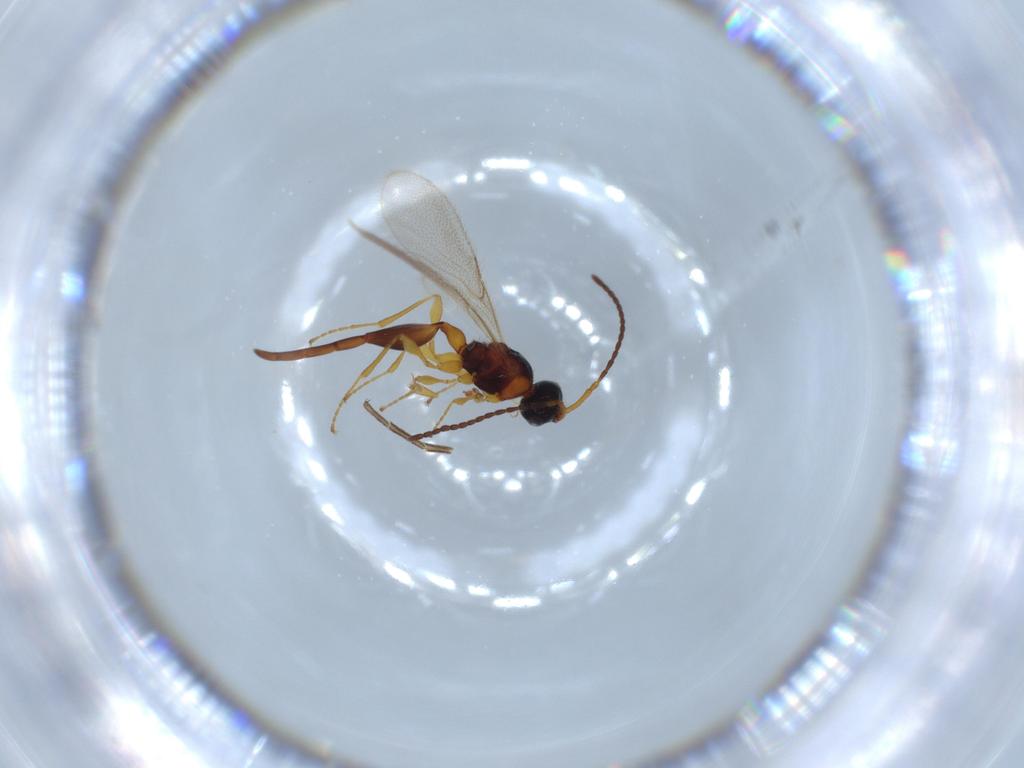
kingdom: Animalia
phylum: Arthropoda
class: Insecta
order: Hymenoptera
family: Formicidae
